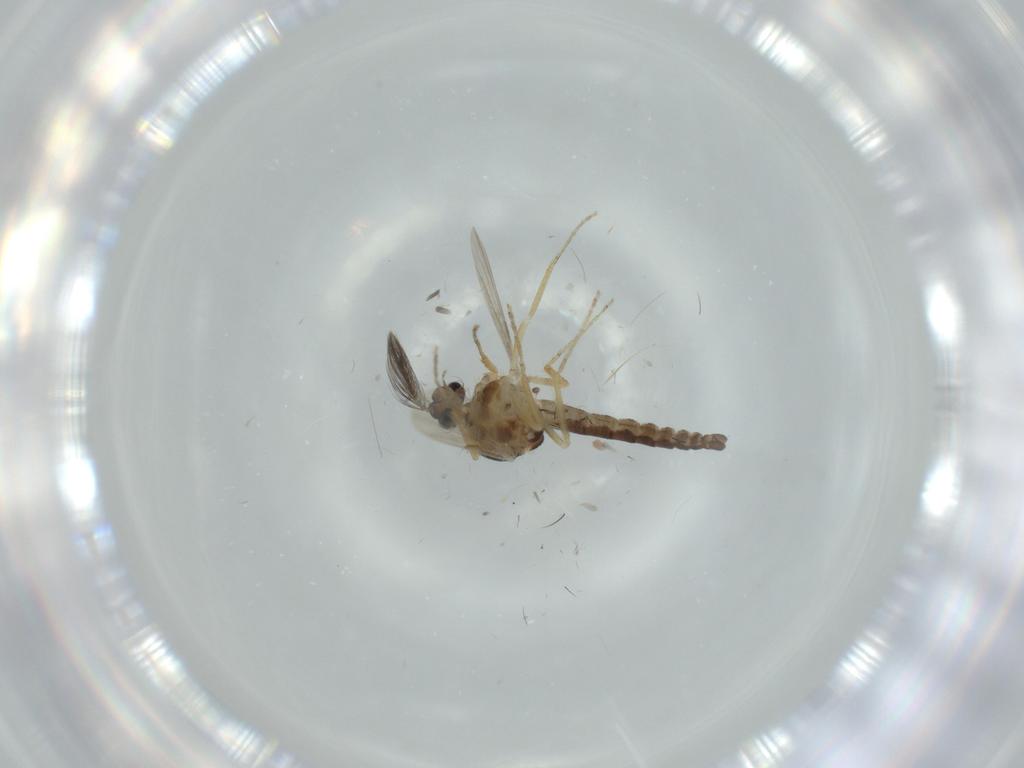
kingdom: Animalia
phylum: Arthropoda
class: Insecta
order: Diptera
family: Ceratopogonidae
